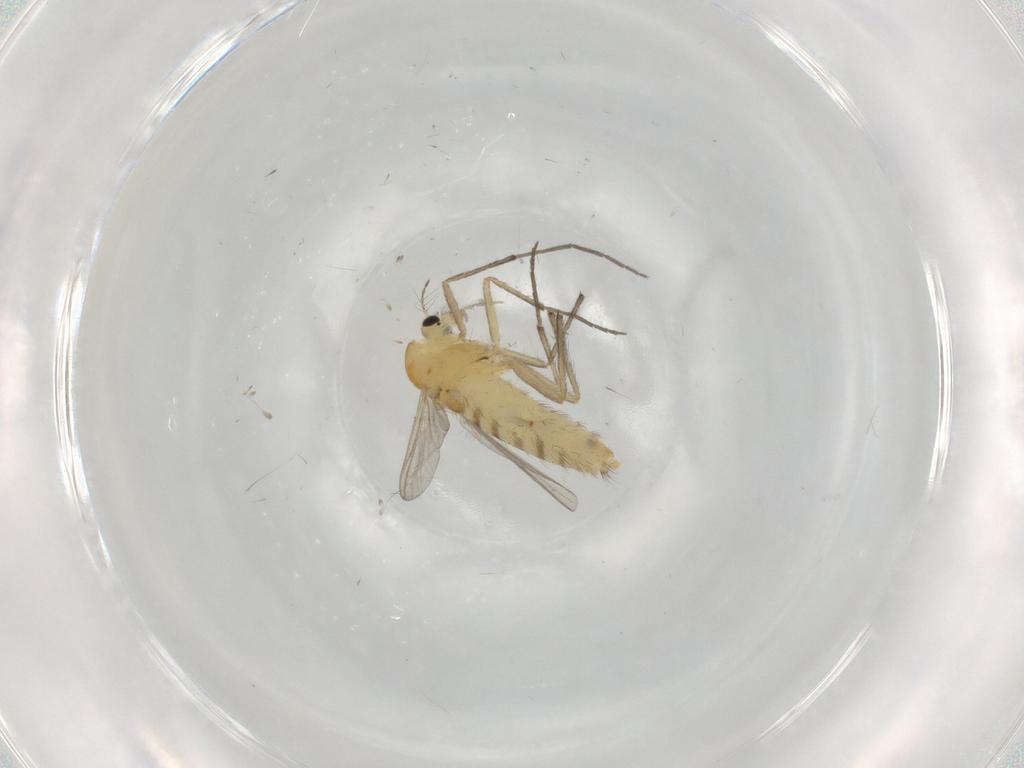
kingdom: Animalia
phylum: Arthropoda
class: Insecta
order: Diptera
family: Chironomidae
